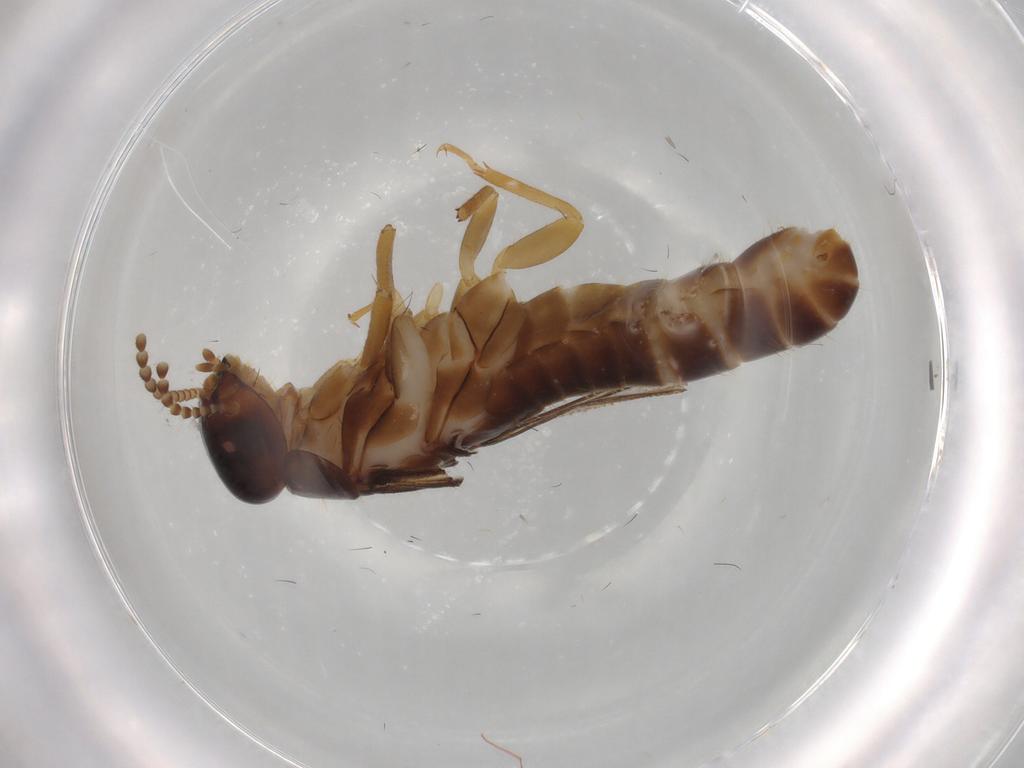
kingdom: Animalia
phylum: Arthropoda
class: Insecta
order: Blattodea
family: Kalotermitidae
